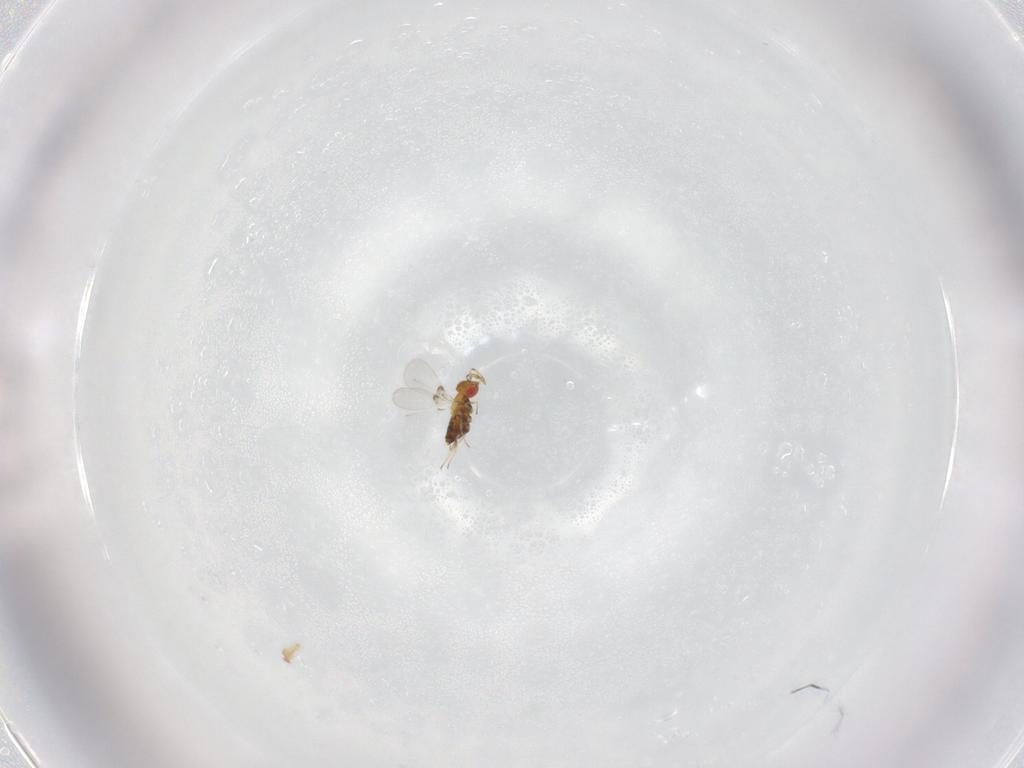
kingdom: Animalia
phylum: Arthropoda
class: Insecta
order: Hymenoptera
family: Trichogrammatidae
